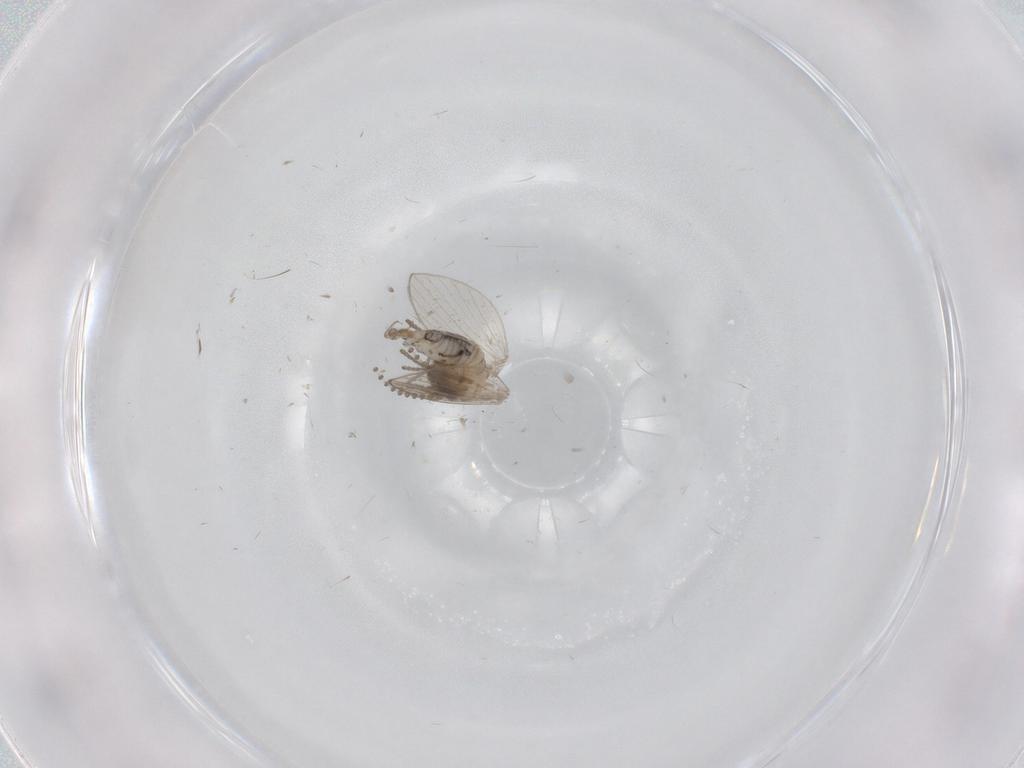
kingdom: Animalia
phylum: Arthropoda
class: Insecta
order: Diptera
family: Psychodidae
